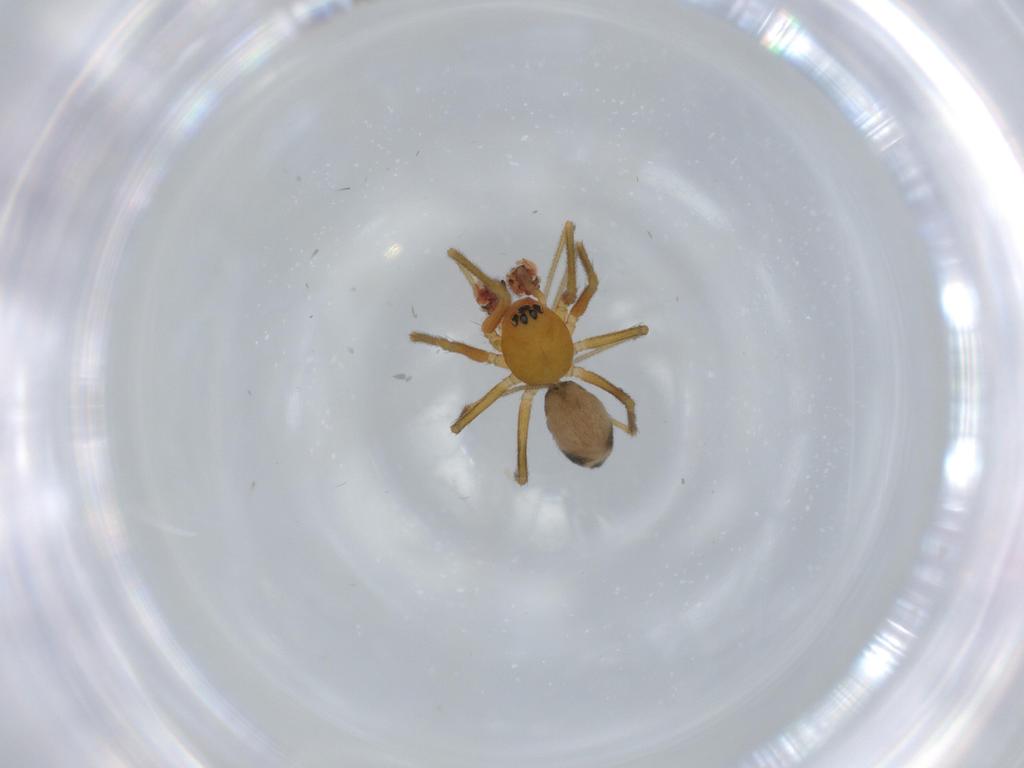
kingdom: Animalia
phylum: Arthropoda
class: Arachnida
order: Araneae
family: Linyphiidae
